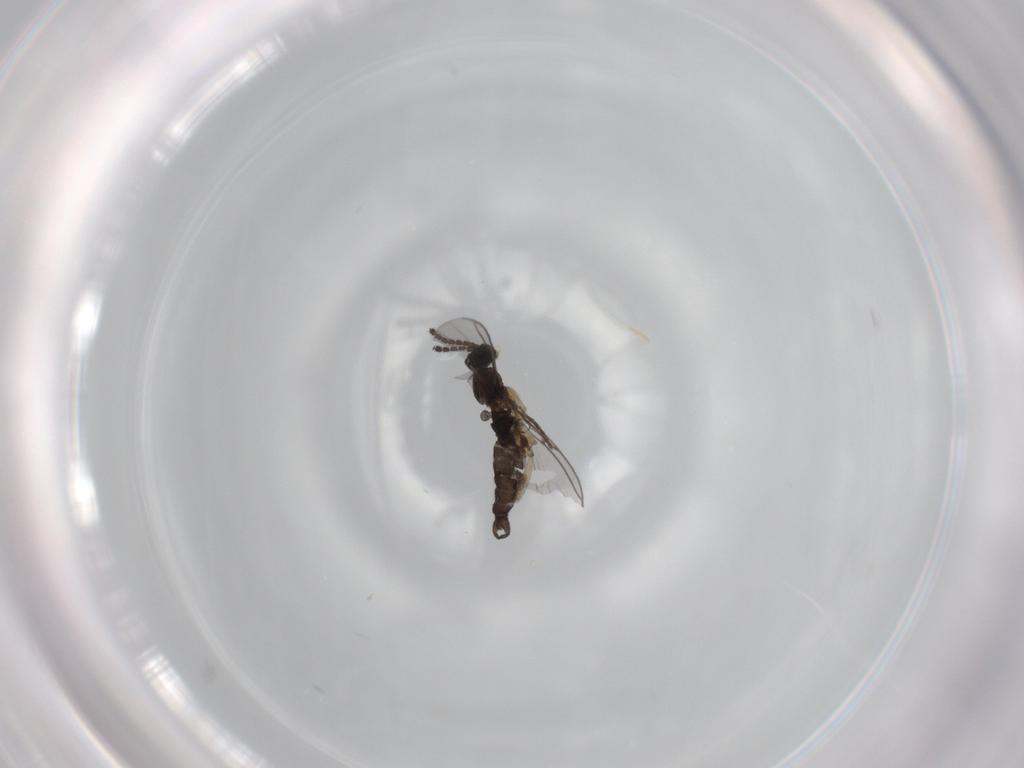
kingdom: Animalia
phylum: Arthropoda
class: Insecta
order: Diptera
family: Sciaridae
